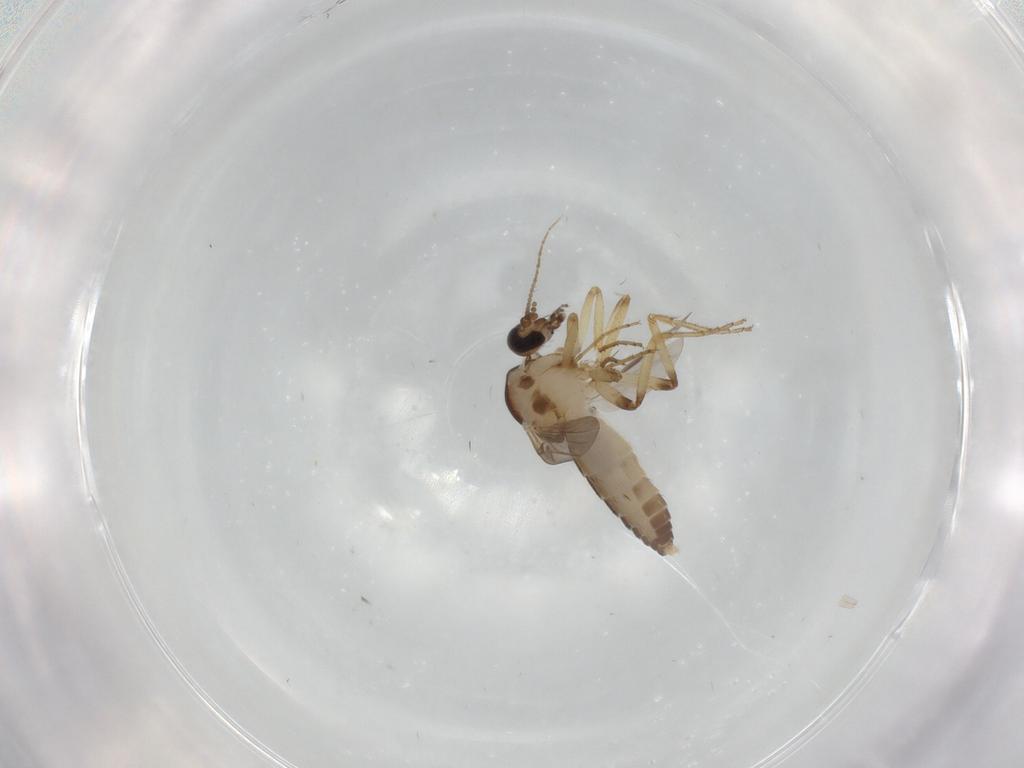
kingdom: Animalia
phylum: Arthropoda
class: Insecta
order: Diptera
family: Ceratopogonidae
